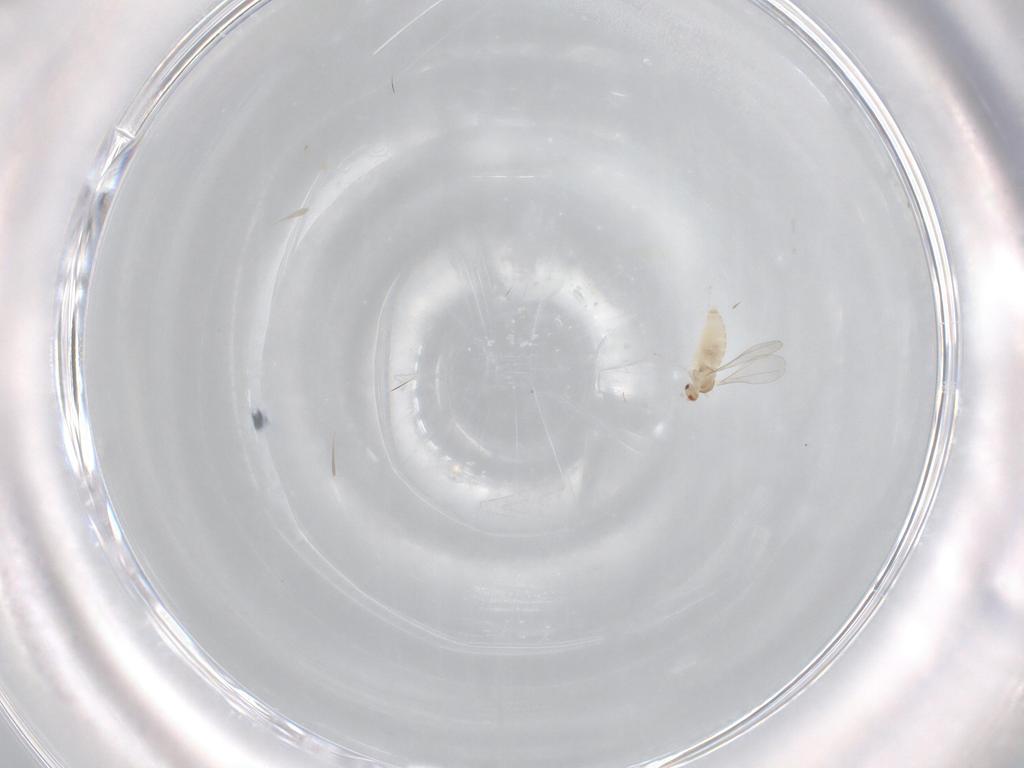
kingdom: Animalia
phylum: Arthropoda
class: Insecta
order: Diptera
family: Cecidomyiidae
